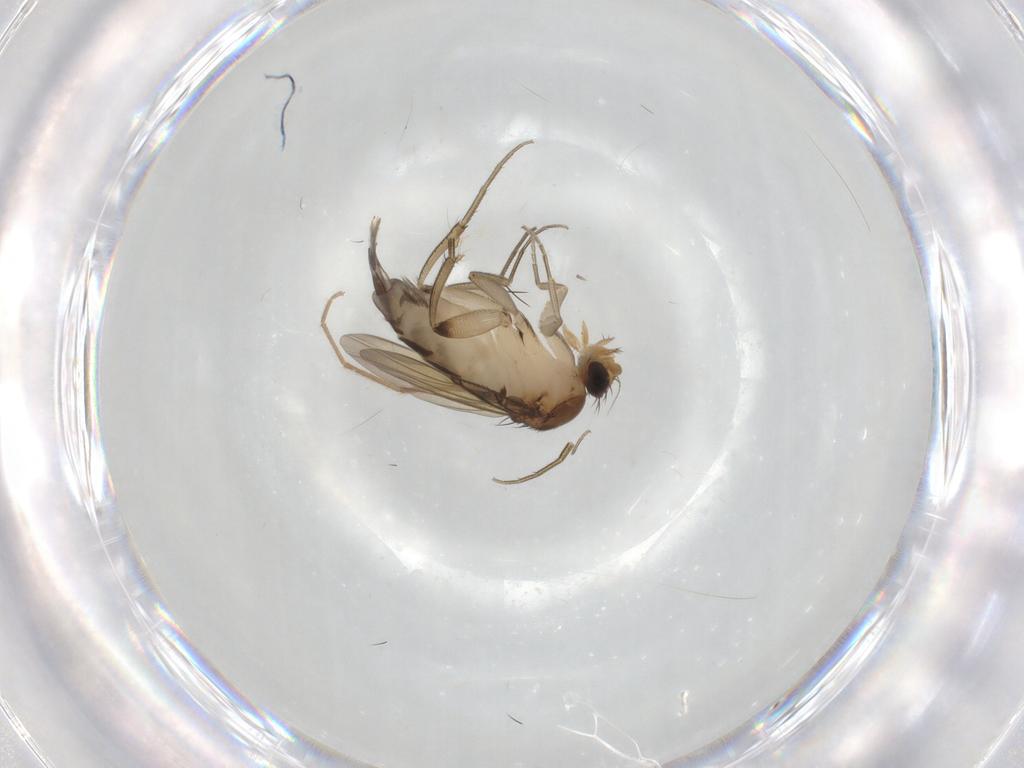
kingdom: Animalia
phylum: Arthropoda
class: Insecta
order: Diptera
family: Phoridae
